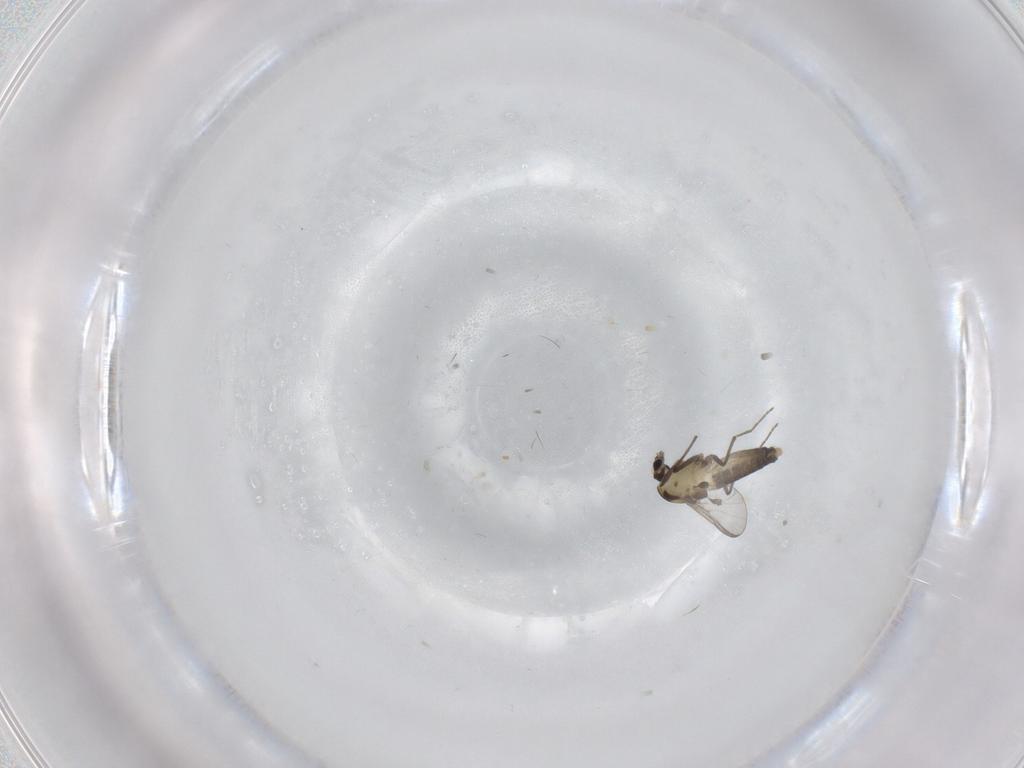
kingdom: Animalia
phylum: Arthropoda
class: Insecta
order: Diptera
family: Chironomidae
